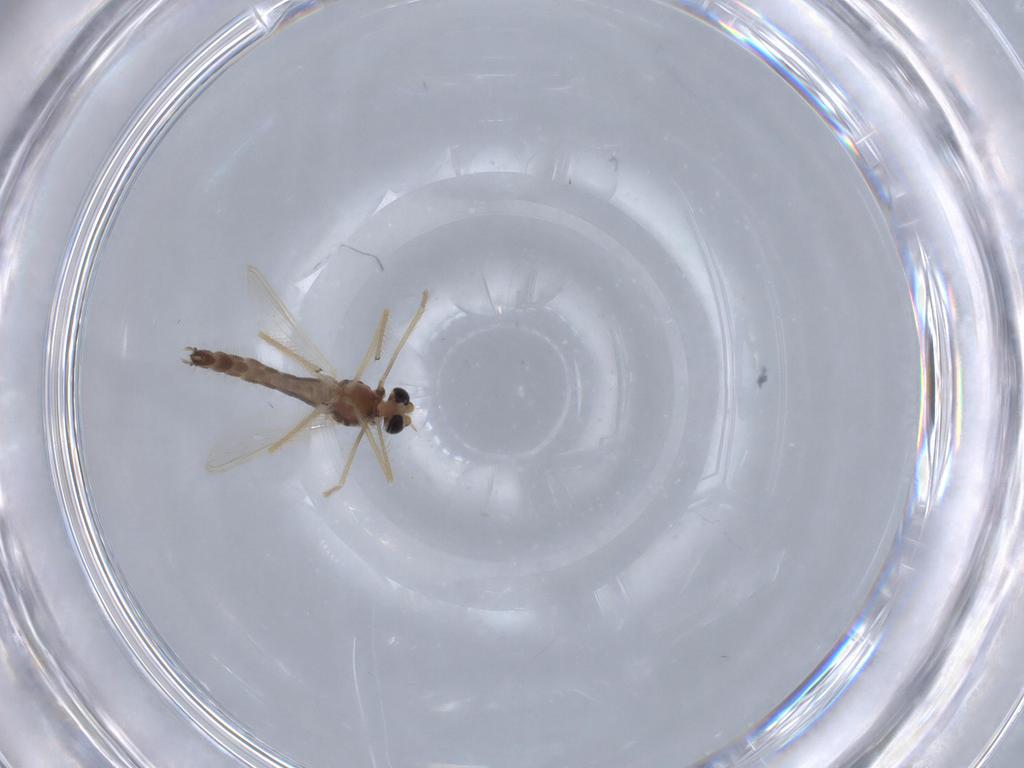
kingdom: Animalia
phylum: Arthropoda
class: Insecta
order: Diptera
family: Chironomidae
